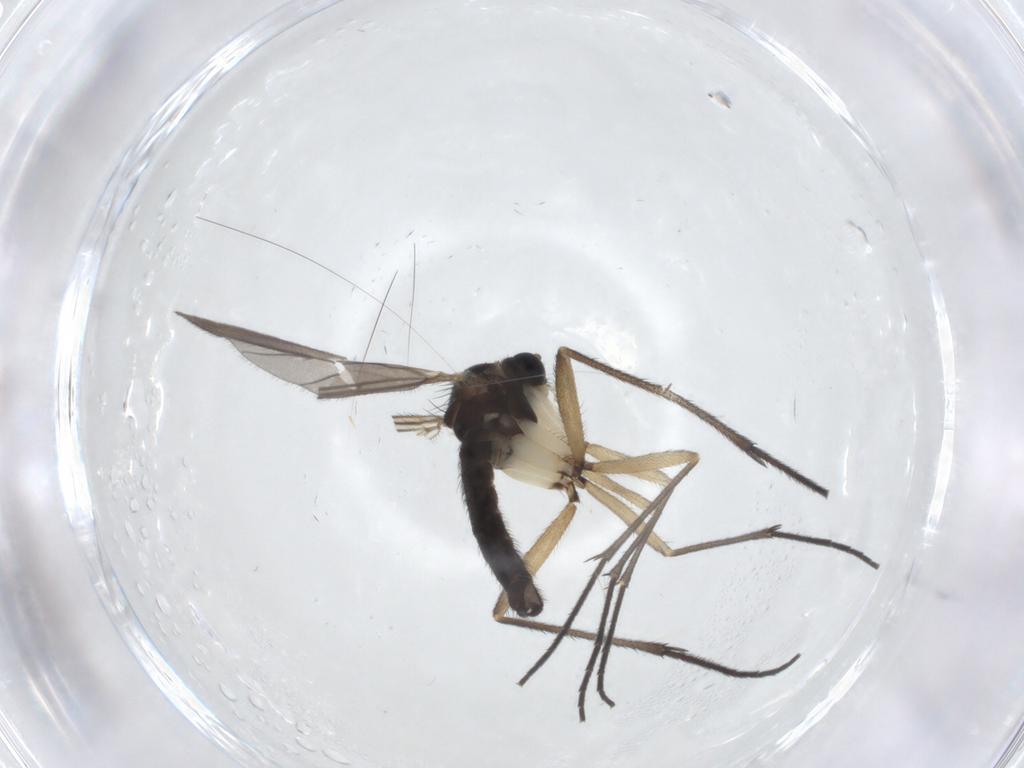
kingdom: Animalia
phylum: Arthropoda
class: Insecta
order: Diptera
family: Sciaridae
